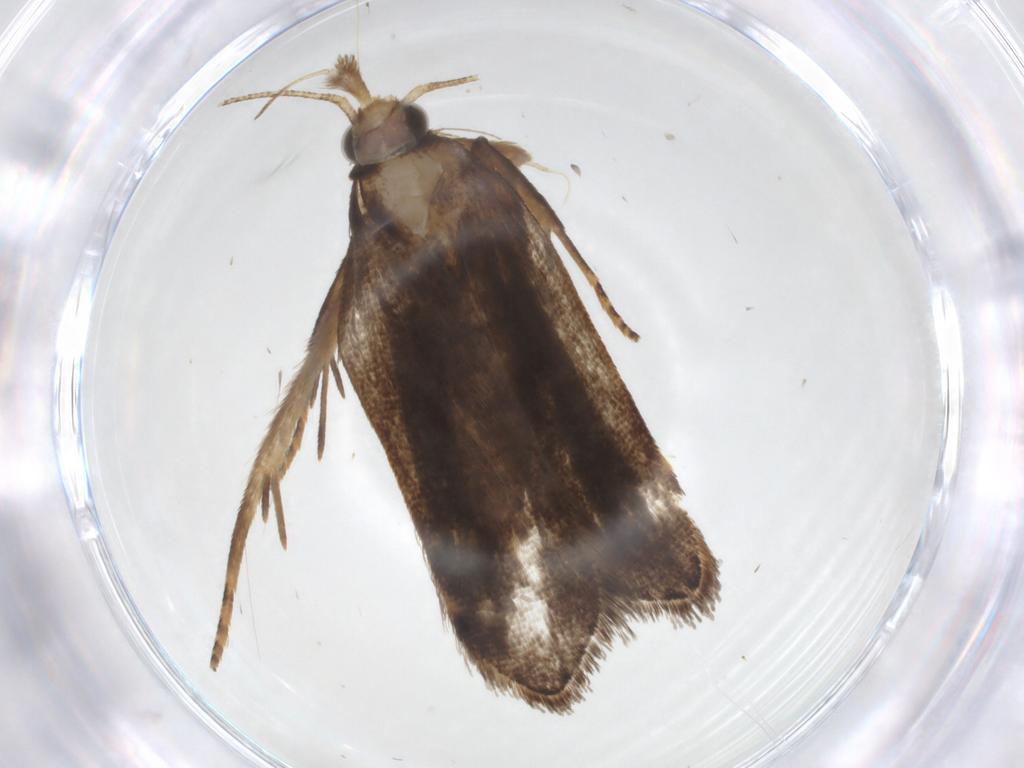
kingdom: Animalia
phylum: Arthropoda
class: Insecta
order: Lepidoptera
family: Gelechiidae
